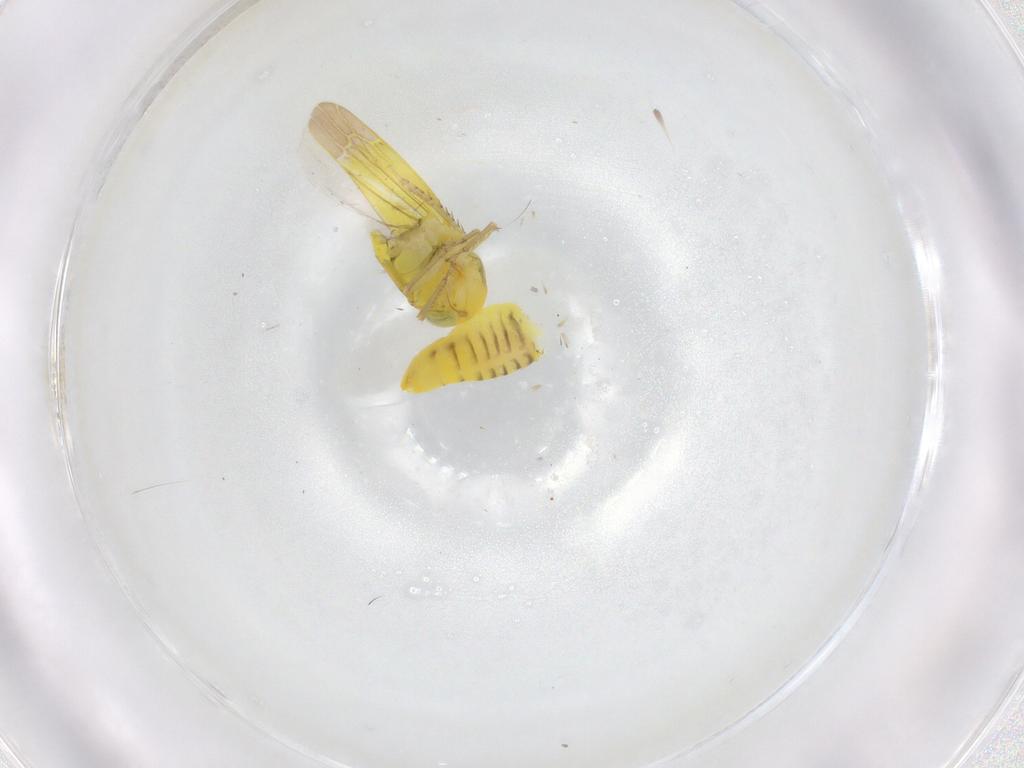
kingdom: Animalia
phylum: Arthropoda
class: Insecta
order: Hemiptera
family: Cicadellidae
